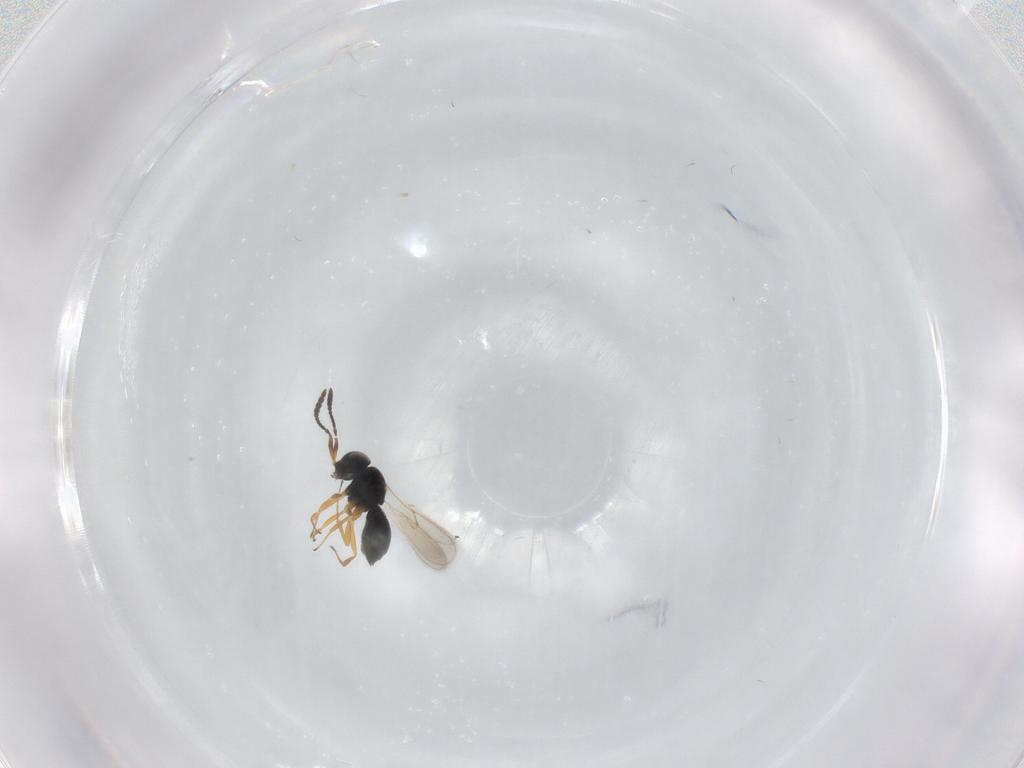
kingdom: Animalia
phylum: Arthropoda
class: Insecta
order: Hymenoptera
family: Scelionidae
